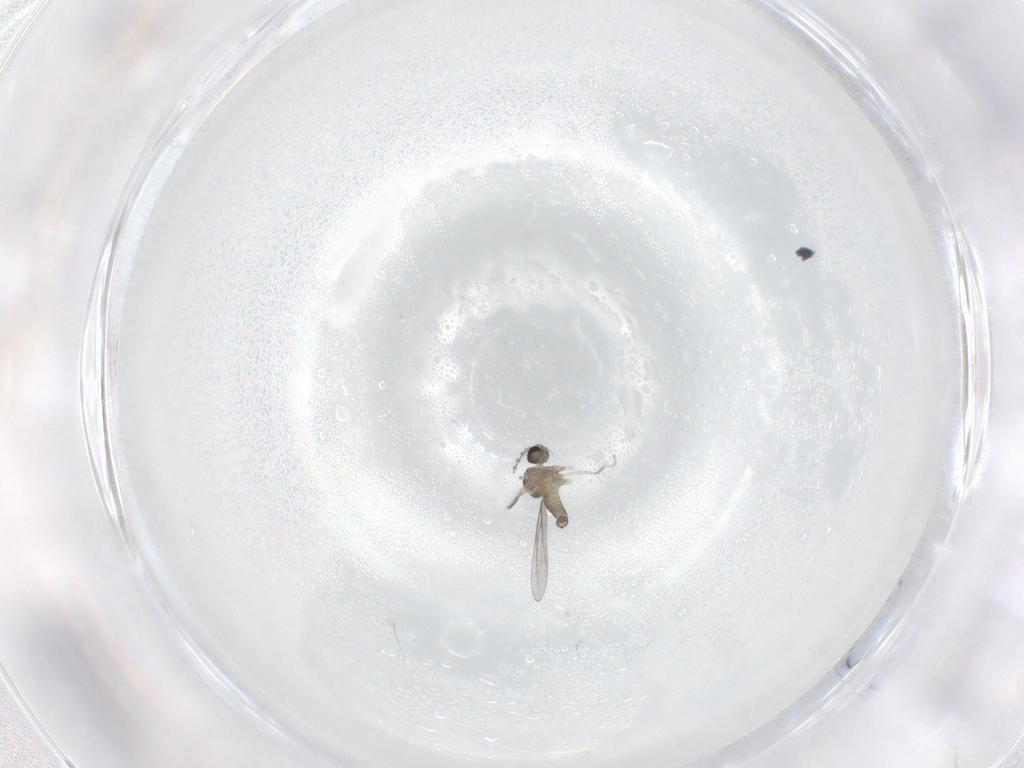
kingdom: Animalia
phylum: Arthropoda
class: Insecta
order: Diptera
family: Cecidomyiidae
